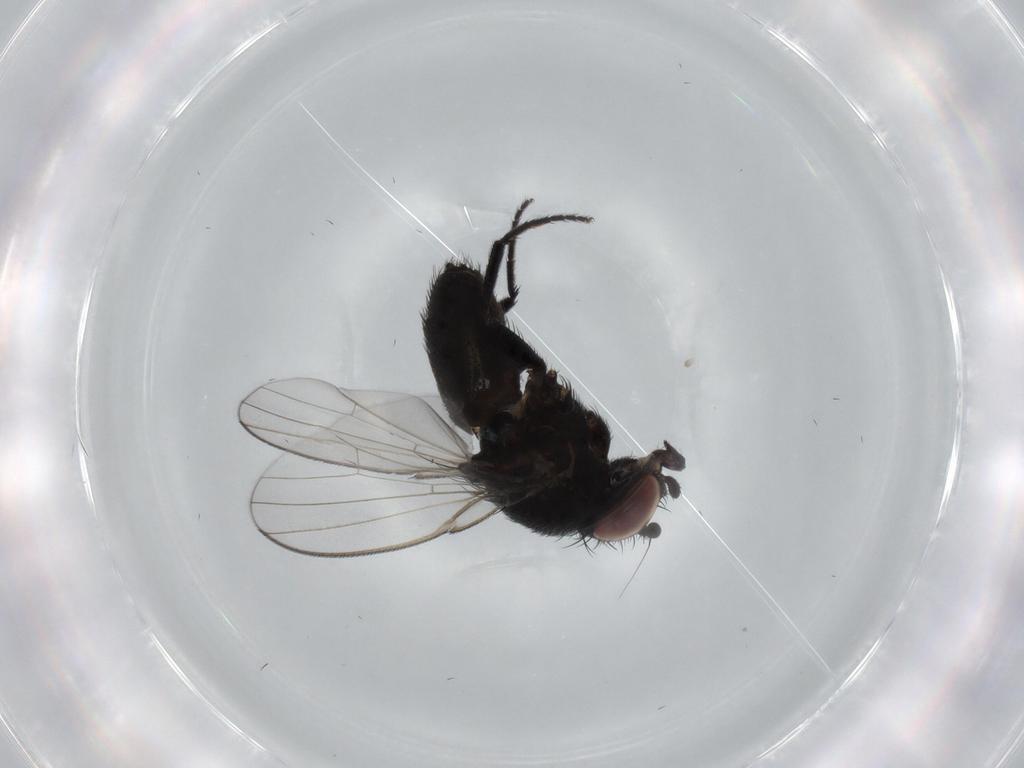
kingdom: Animalia
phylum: Arthropoda
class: Insecta
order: Diptera
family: Milichiidae
